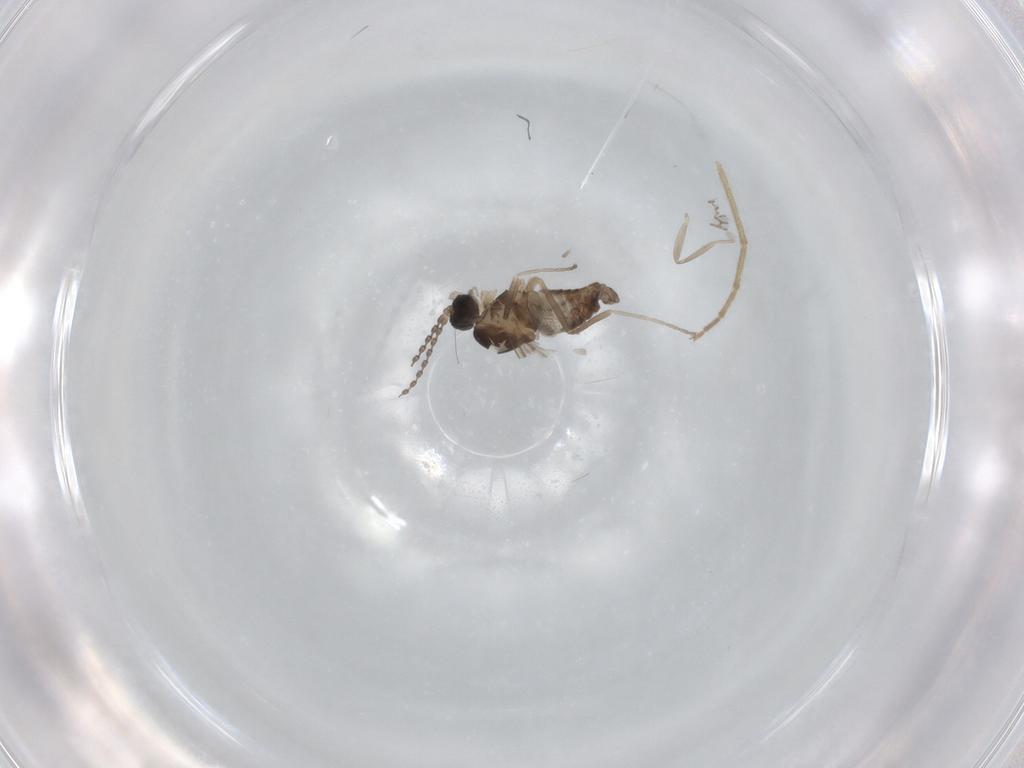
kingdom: Animalia
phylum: Arthropoda
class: Insecta
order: Diptera
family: Cecidomyiidae
